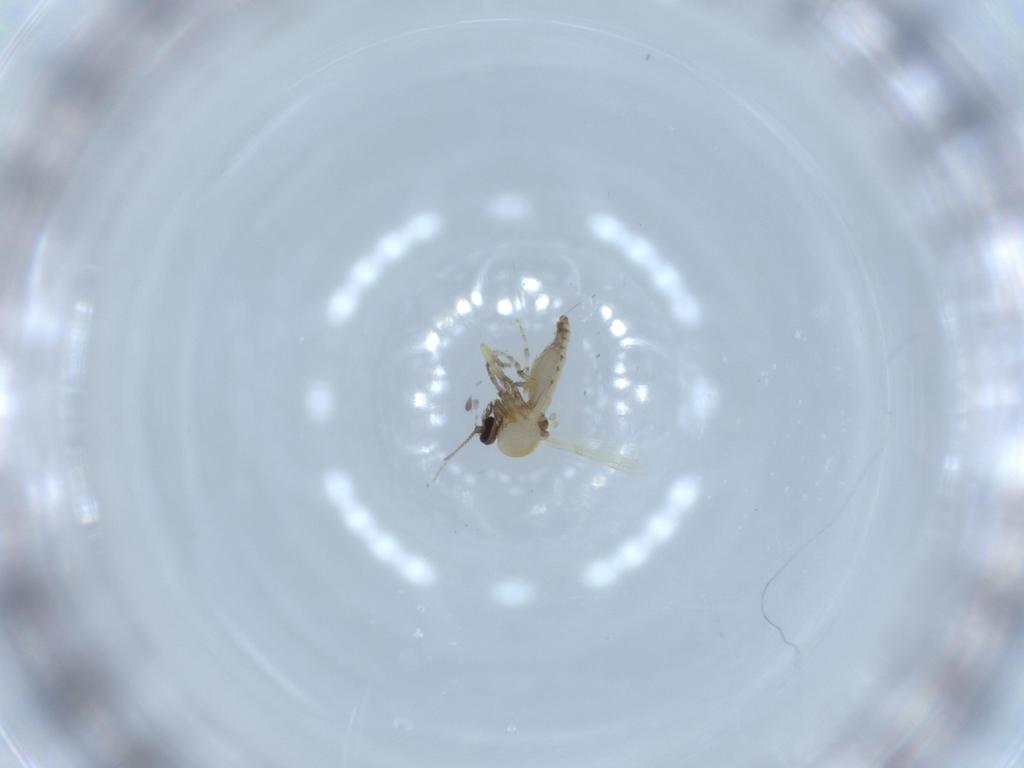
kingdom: Animalia
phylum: Arthropoda
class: Insecta
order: Diptera
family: Ceratopogonidae
